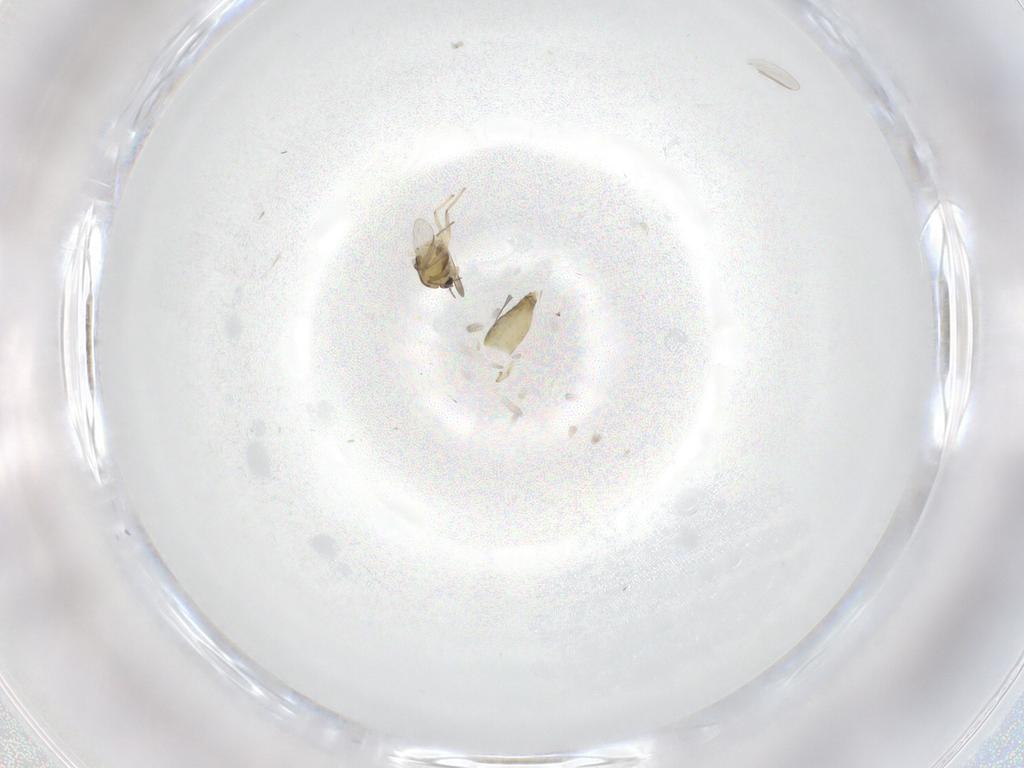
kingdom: Animalia
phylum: Arthropoda
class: Insecta
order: Diptera
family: Chironomidae
